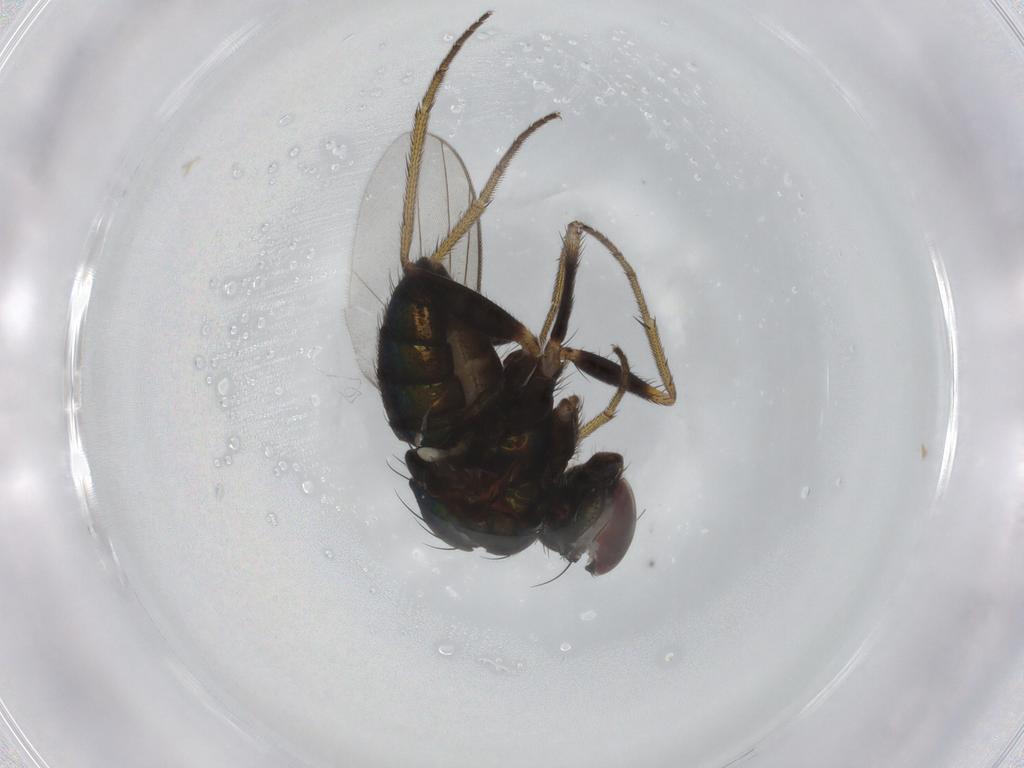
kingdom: Animalia
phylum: Arthropoda
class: Insecta
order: Diptera
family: Dolichopodidae
